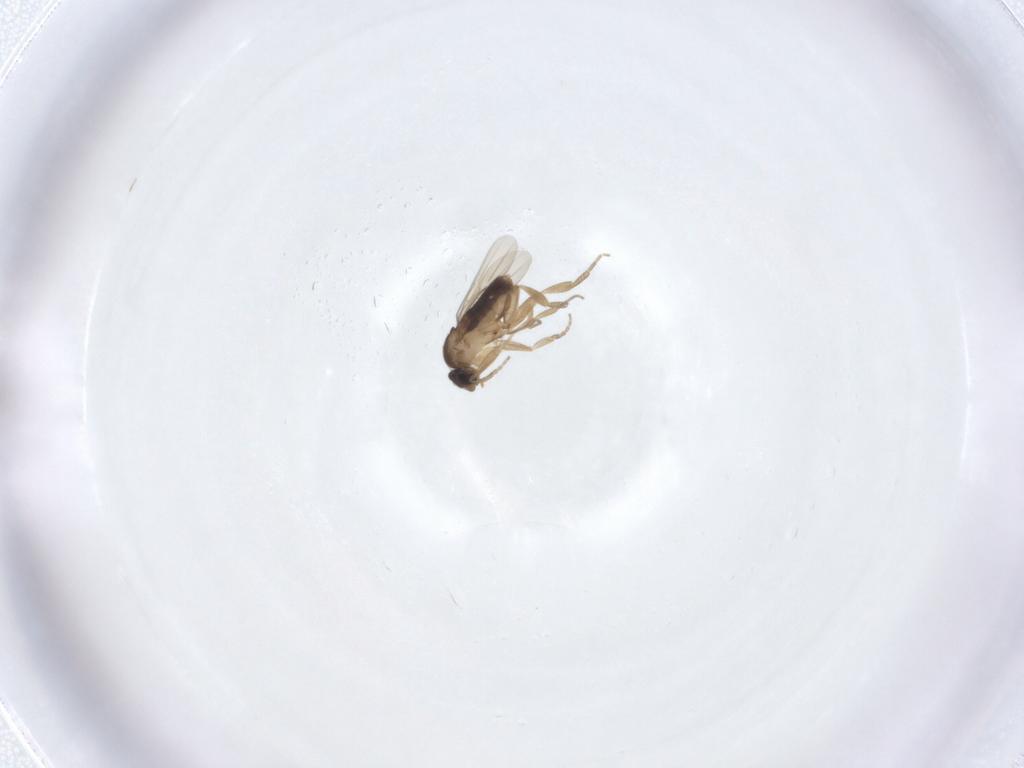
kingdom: Animalia
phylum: Arthropoda
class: Insecta
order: Diptera
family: Phoridae
